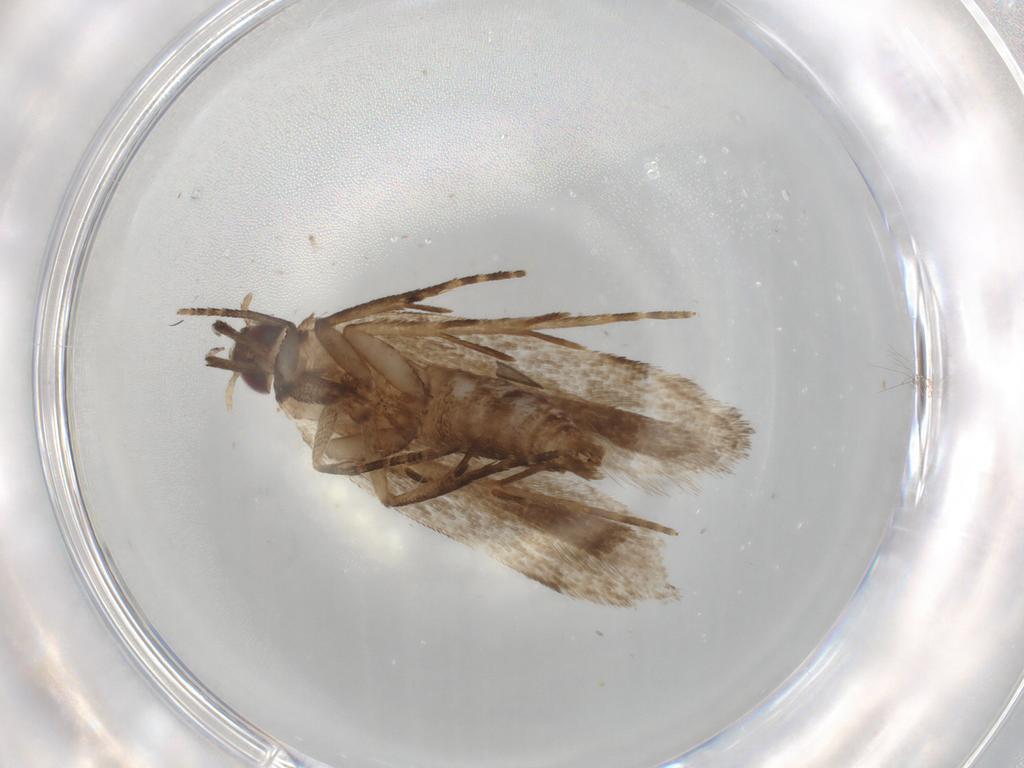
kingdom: Animalia
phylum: Arthropoda
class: Insecta
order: Lepidoptera
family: Gelechiidae
